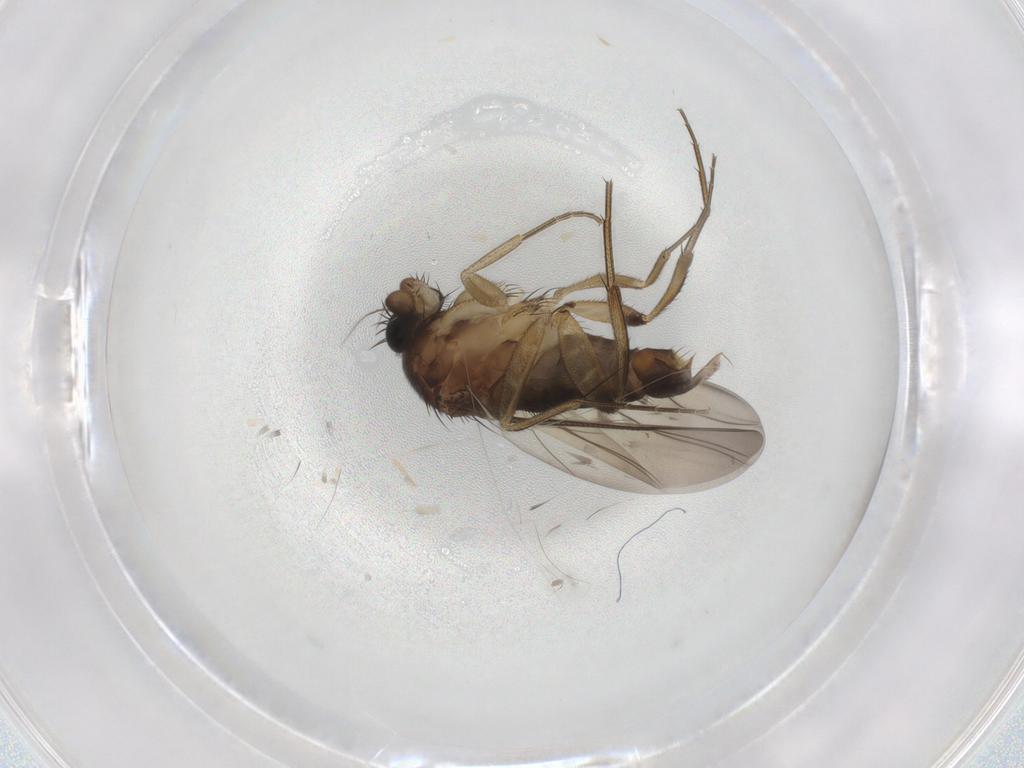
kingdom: Animalia
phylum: Arthropoda
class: Insecta
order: Diptera
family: Phoridae
